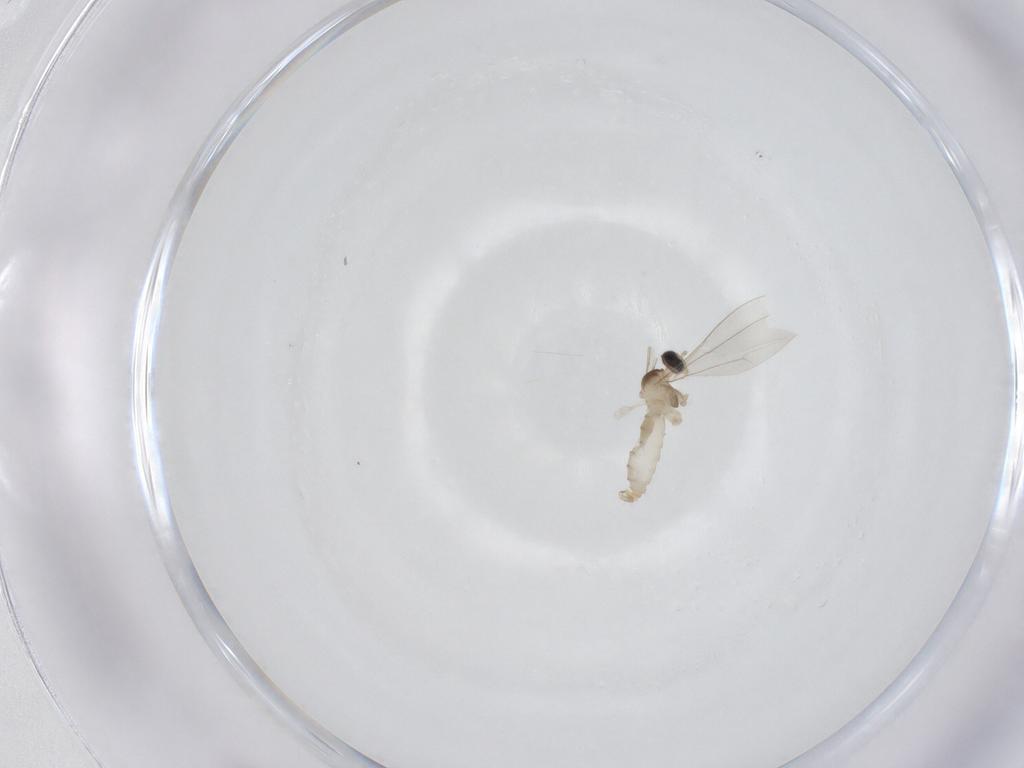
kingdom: Animalia
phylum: Arthropoda
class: Insecta
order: Diptera
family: Cecidomyiidae
